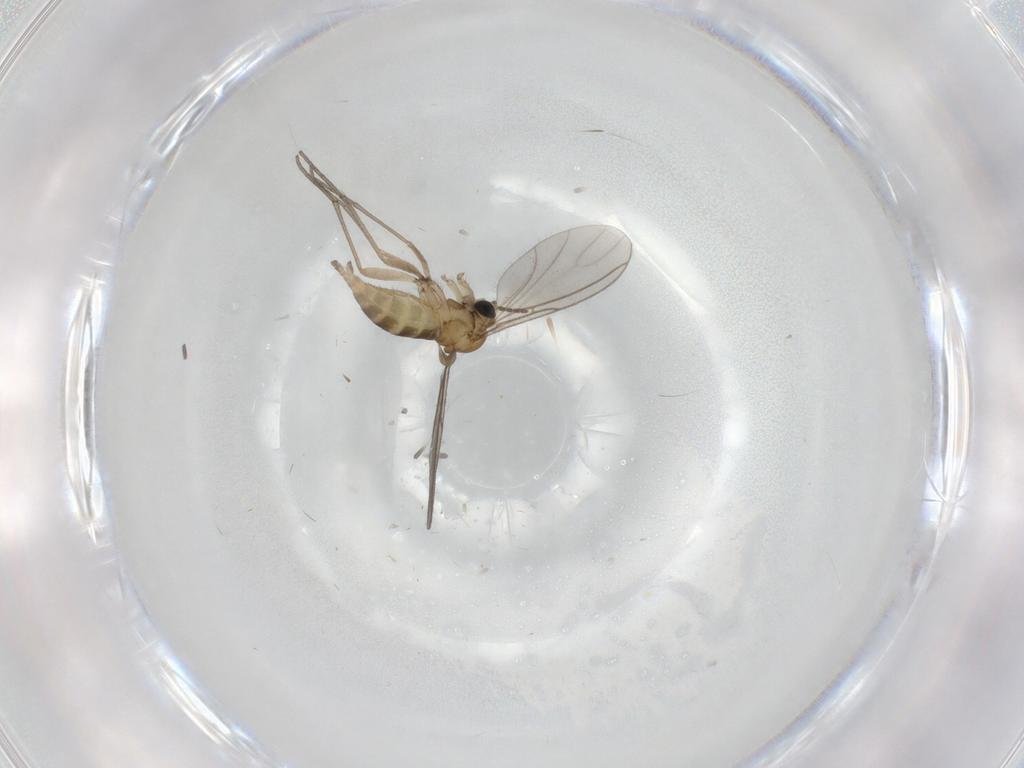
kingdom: Animalia
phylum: Arthropoda
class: Insecta
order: Diptera
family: Sciaridae
